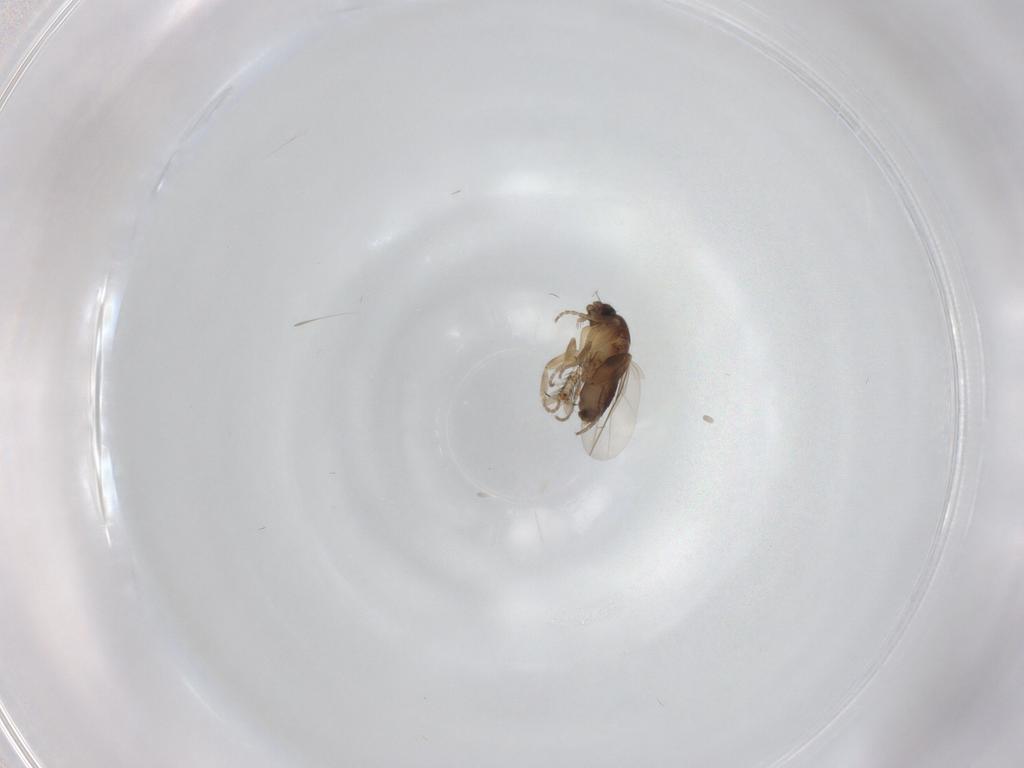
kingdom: Animalia
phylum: Arthropoda
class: Insecta
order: Diptera
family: Phoridae
